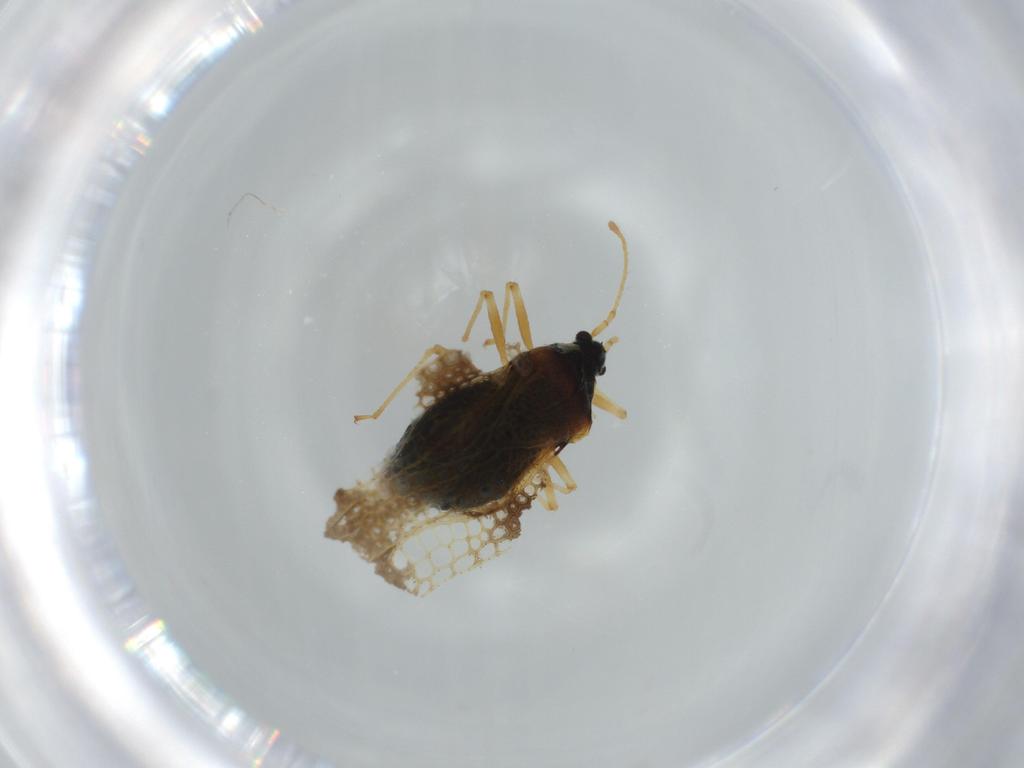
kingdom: Animalia
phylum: Arthropoda
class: Insecta
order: Hemiptera
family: Tingidae
